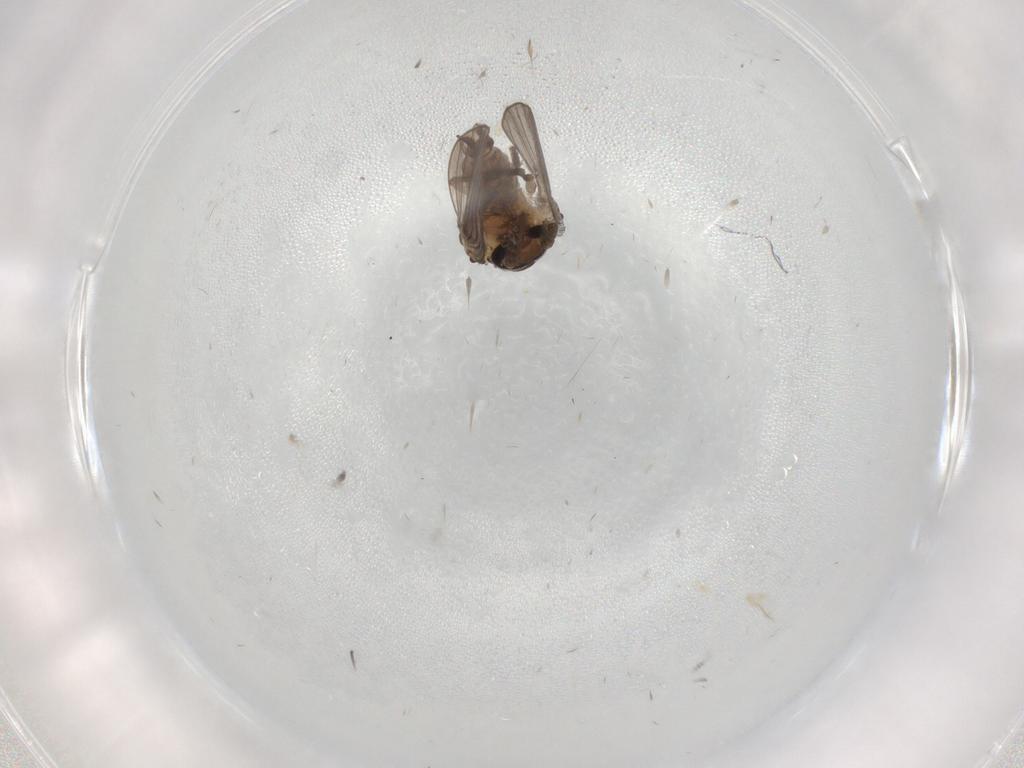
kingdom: Animalia
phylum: Arthropoda
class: Insecta
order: Diptera
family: Psychodidae
